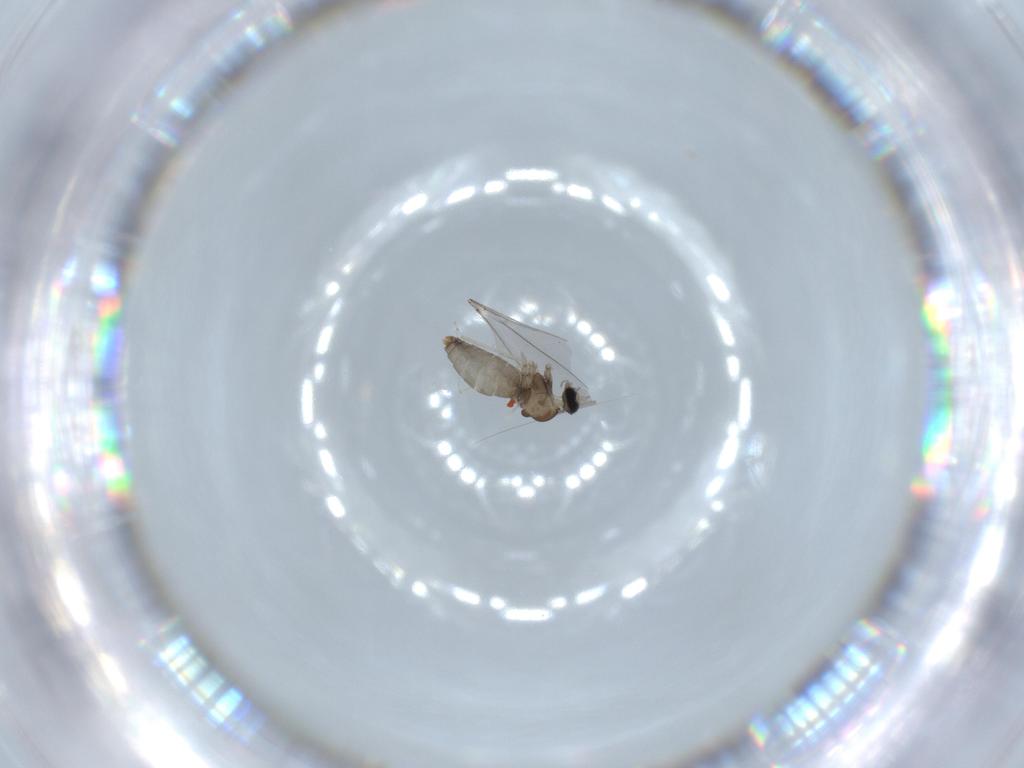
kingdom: Animalia
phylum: Arthropoda
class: Insecta
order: Diptera
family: Cecidomyiidae
